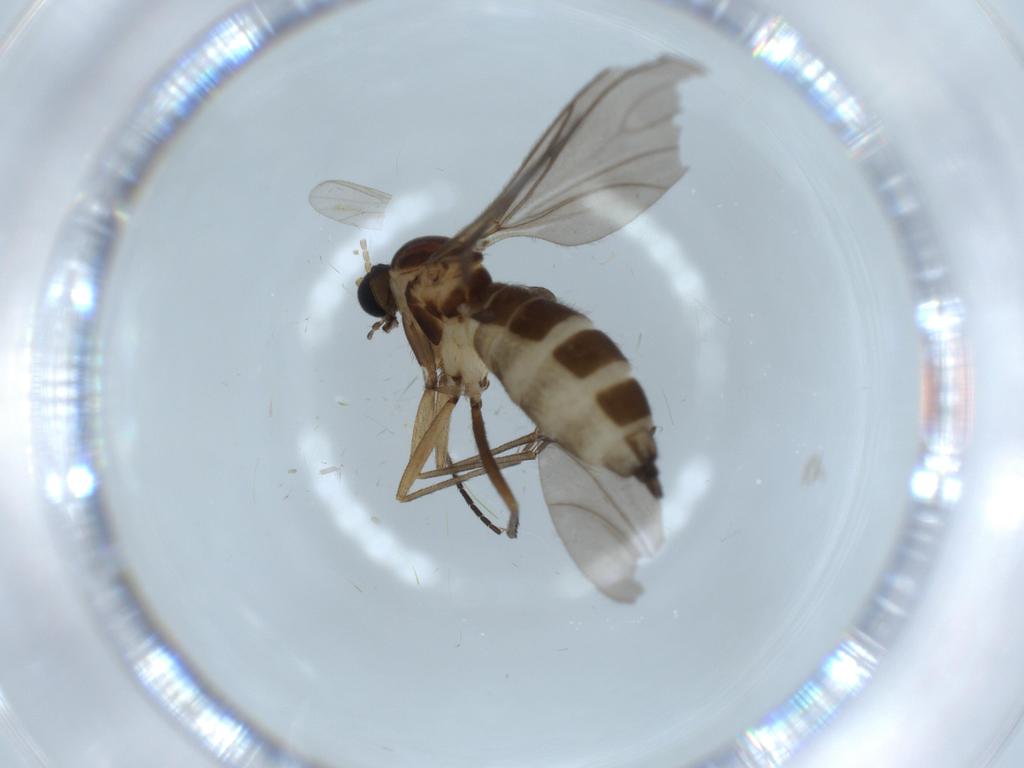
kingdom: Animalia
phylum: Arthropoda
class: Insecta
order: Diptera
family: Sciaridae
